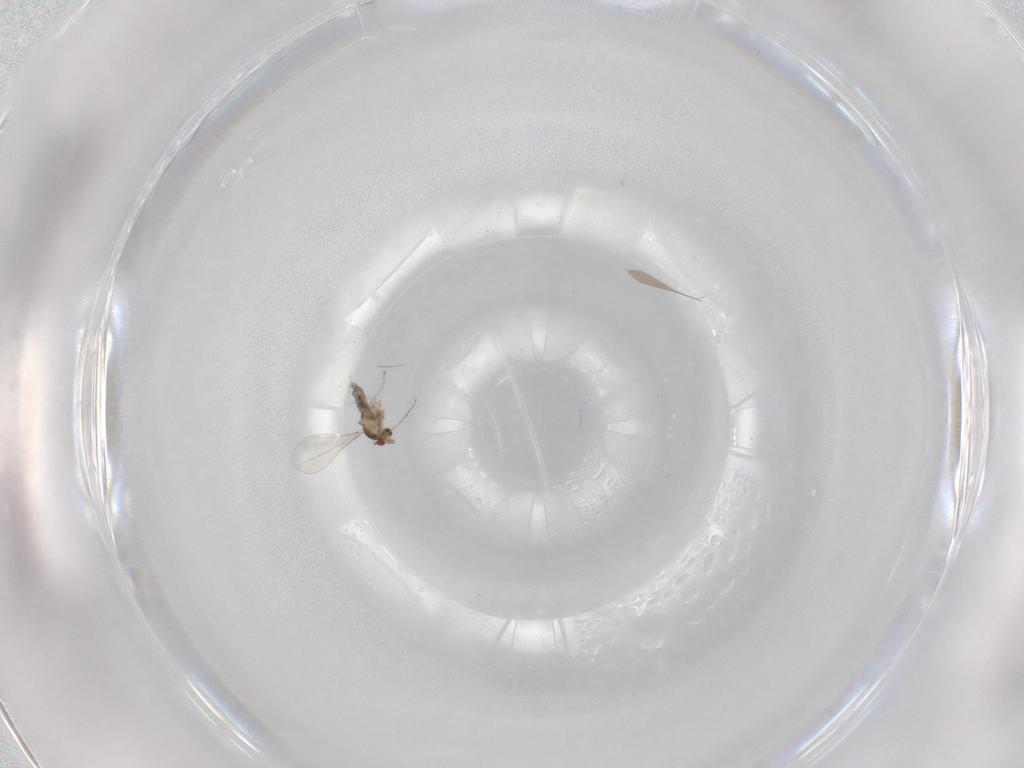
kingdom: Animalia
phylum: Arthropoda
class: Insecta
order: Diptera
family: Cecidomyiidae
